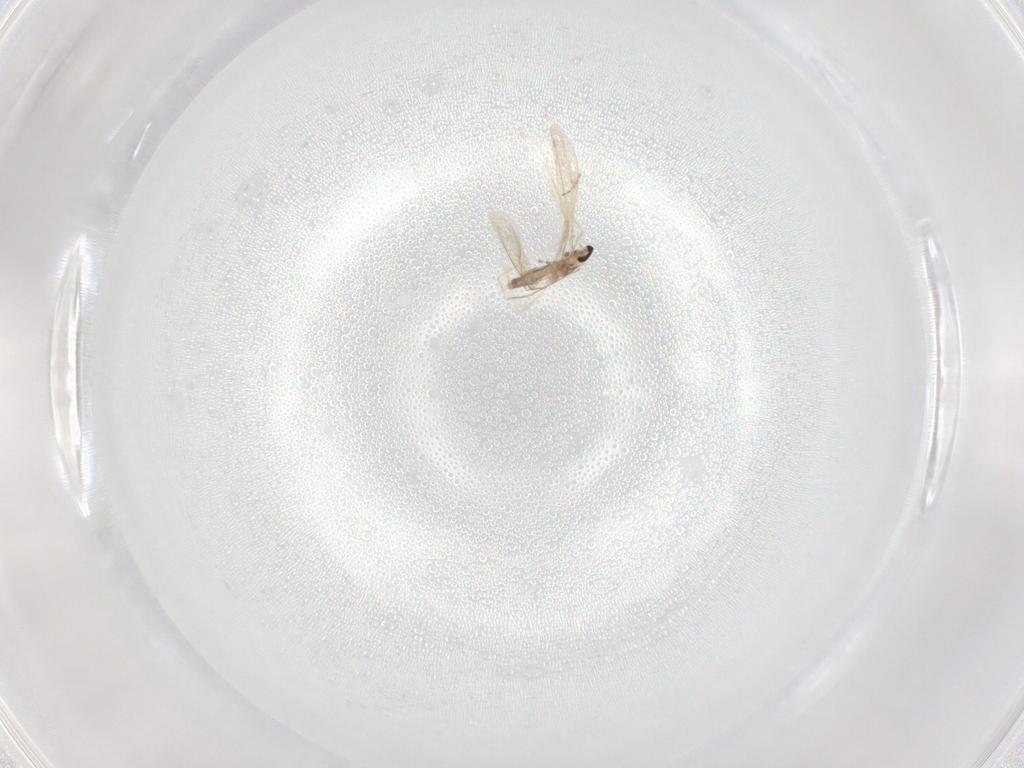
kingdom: Animalia
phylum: Arthropoda
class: Insecta
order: Diptera
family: Cecidomyiidae
